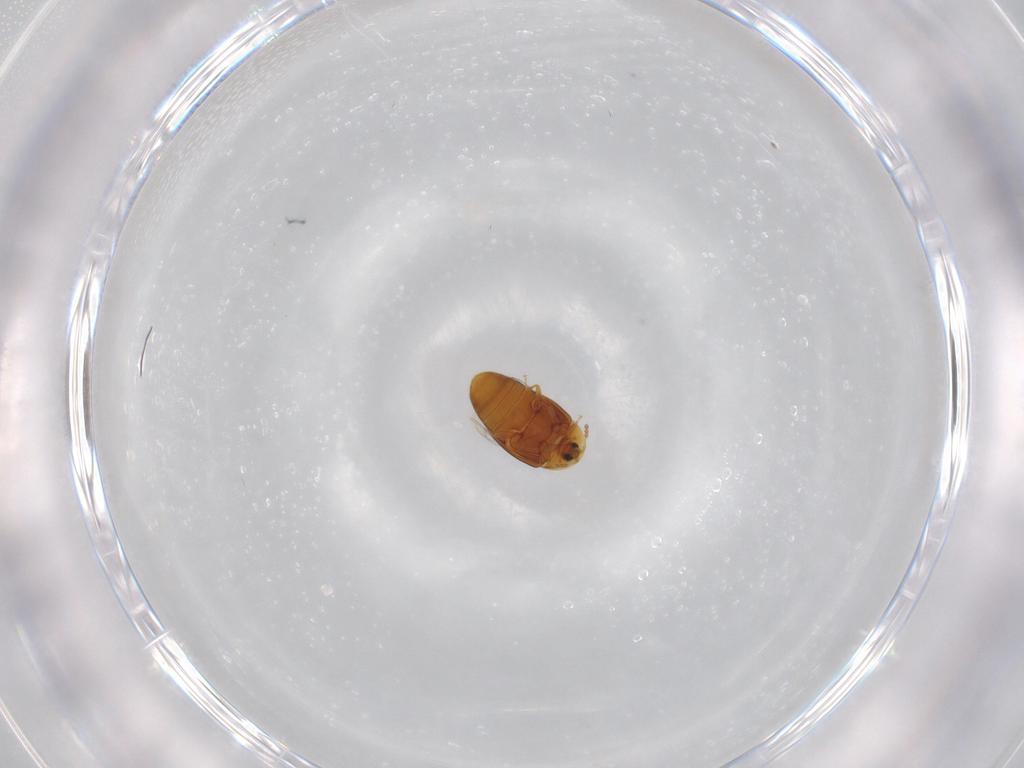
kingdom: Animalia
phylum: Arthropoda
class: Insecta
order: Coleoptera
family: Corylophidae
